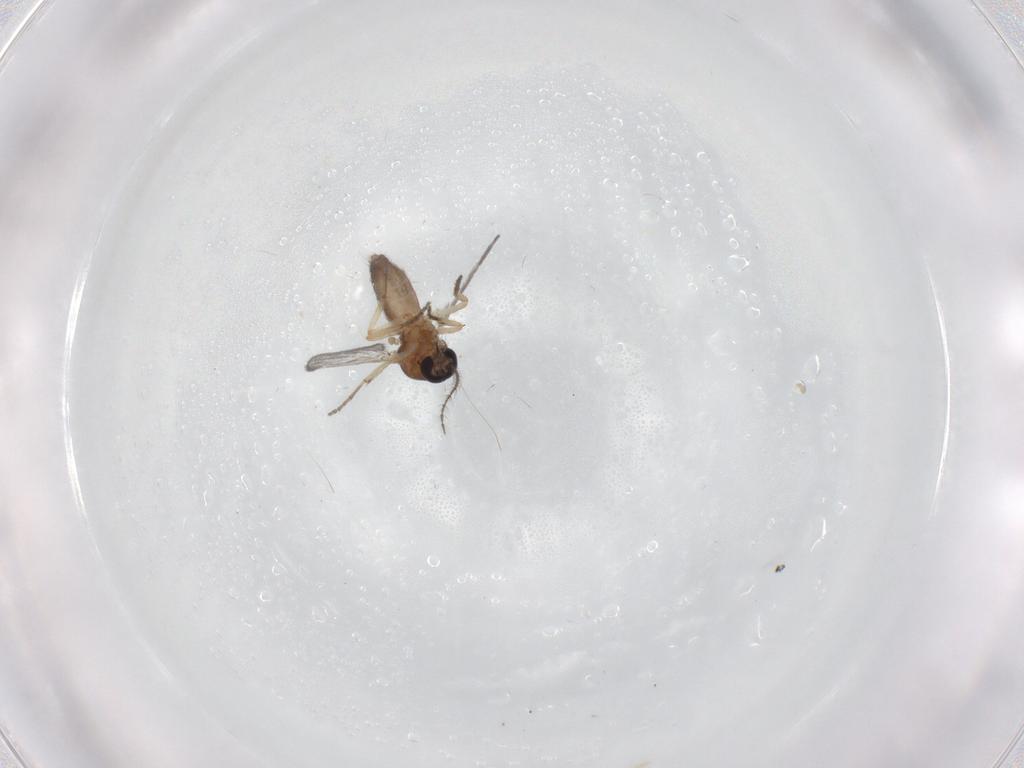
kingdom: Animalia
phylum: Arthropoda
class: Insecta
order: Diptera
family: Ceratopogonidae
